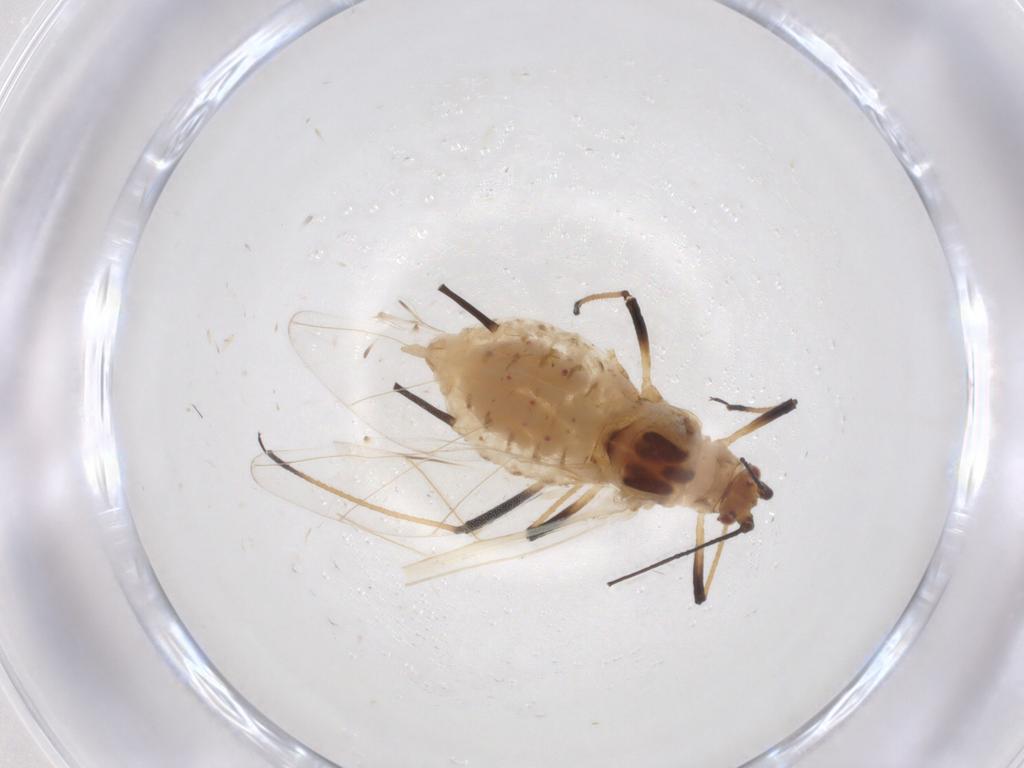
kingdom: Animalia
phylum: Arthropoda
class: Insecta
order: Hemiptera
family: Aphididae
